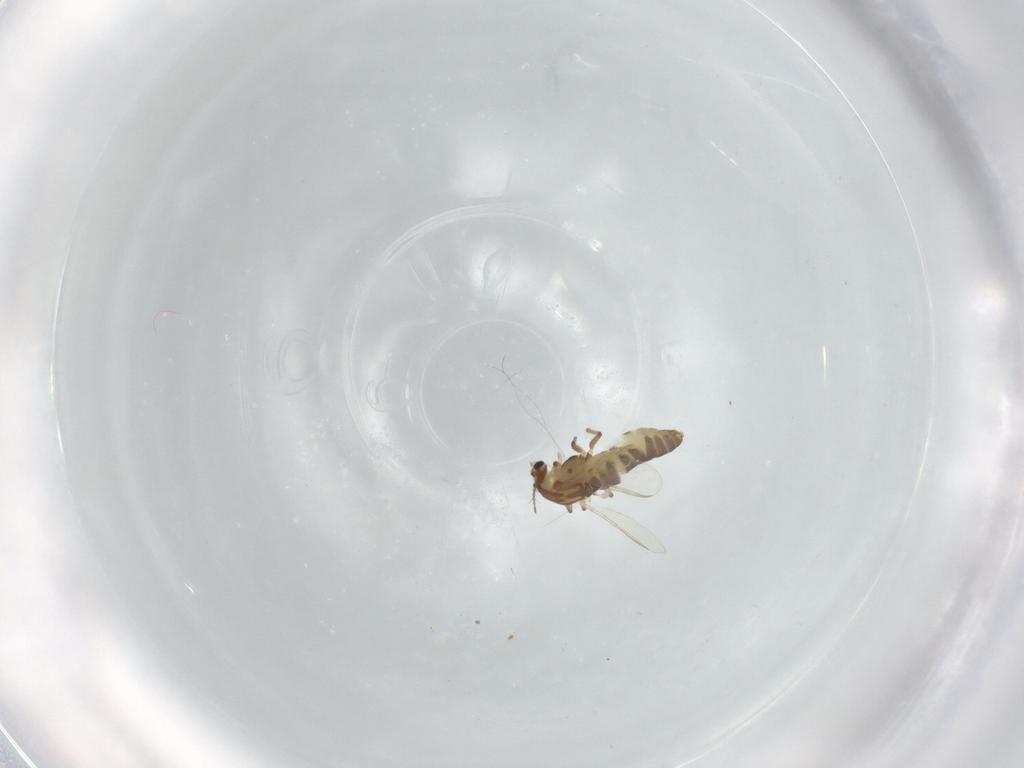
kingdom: Animalia
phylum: Arthropoda
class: Insecta
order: Diptera
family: Chironomidae
